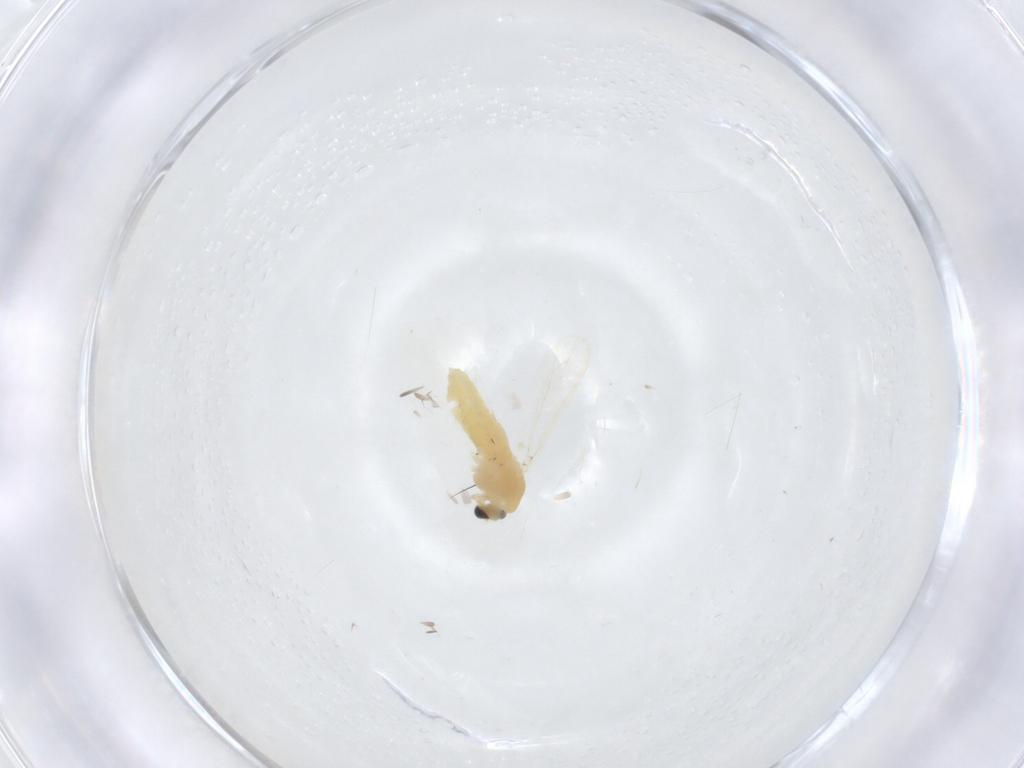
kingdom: Animalia
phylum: Arthropoda
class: Insecta
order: Diptera
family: Chironomidae
